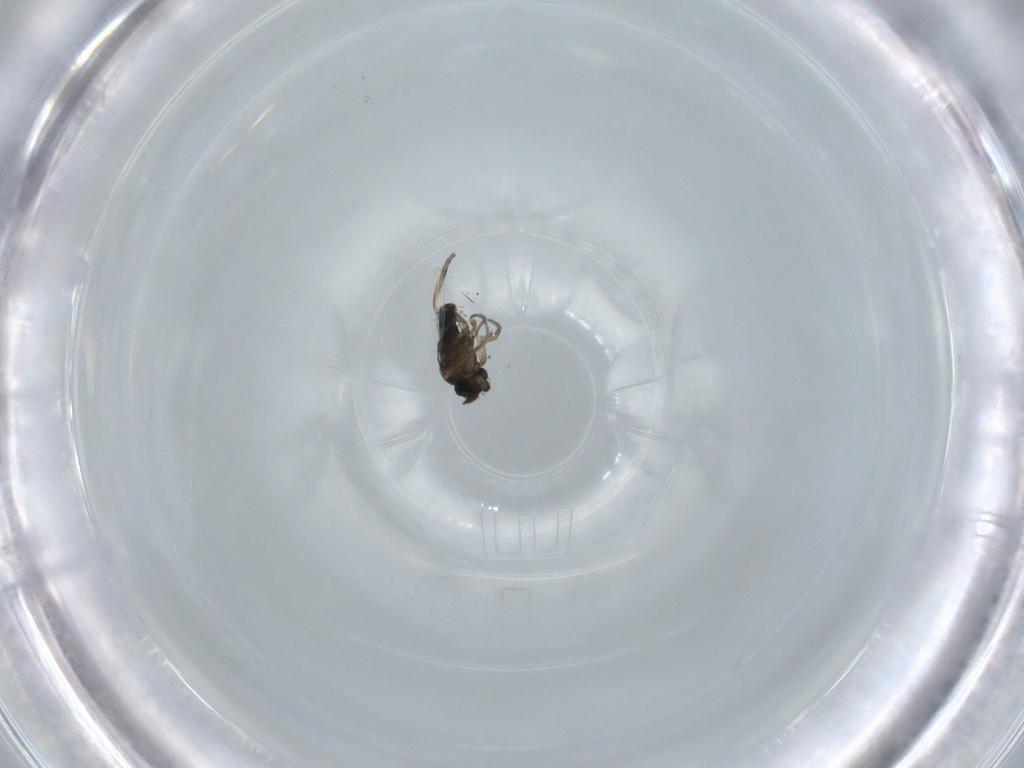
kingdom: Animalia
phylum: Arthropoda
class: Insecta
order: Diptera
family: Phoridae
